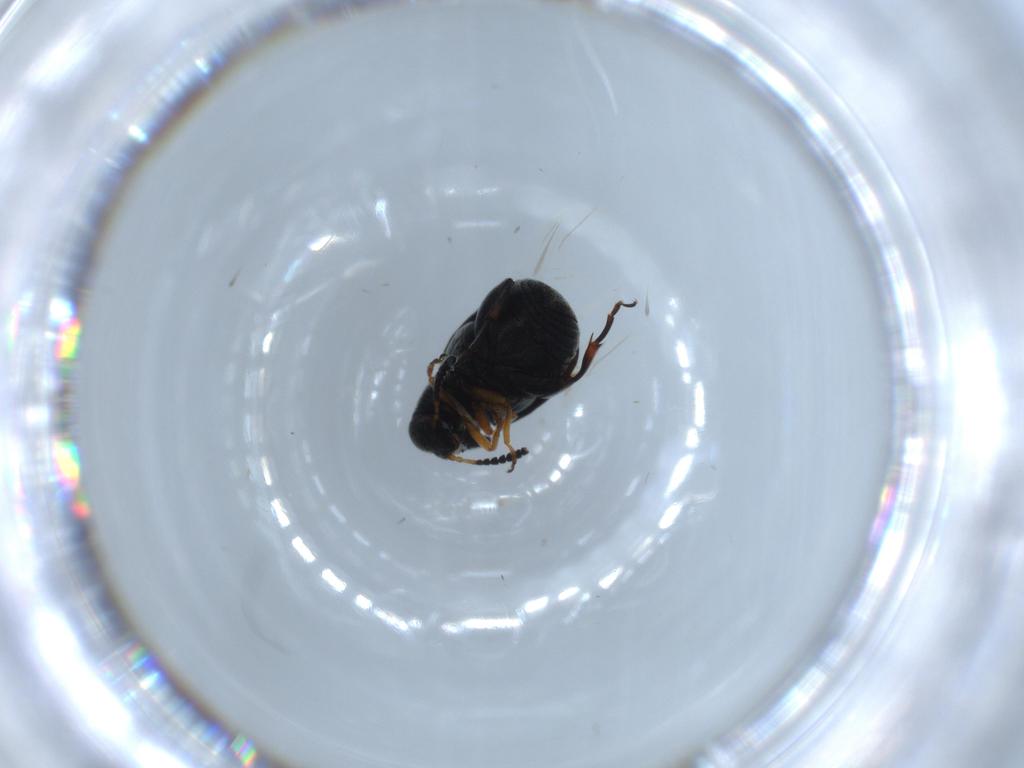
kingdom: Animalia
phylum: Arthropoda
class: Insecta
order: Coleoptera
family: Chrysomelidae
